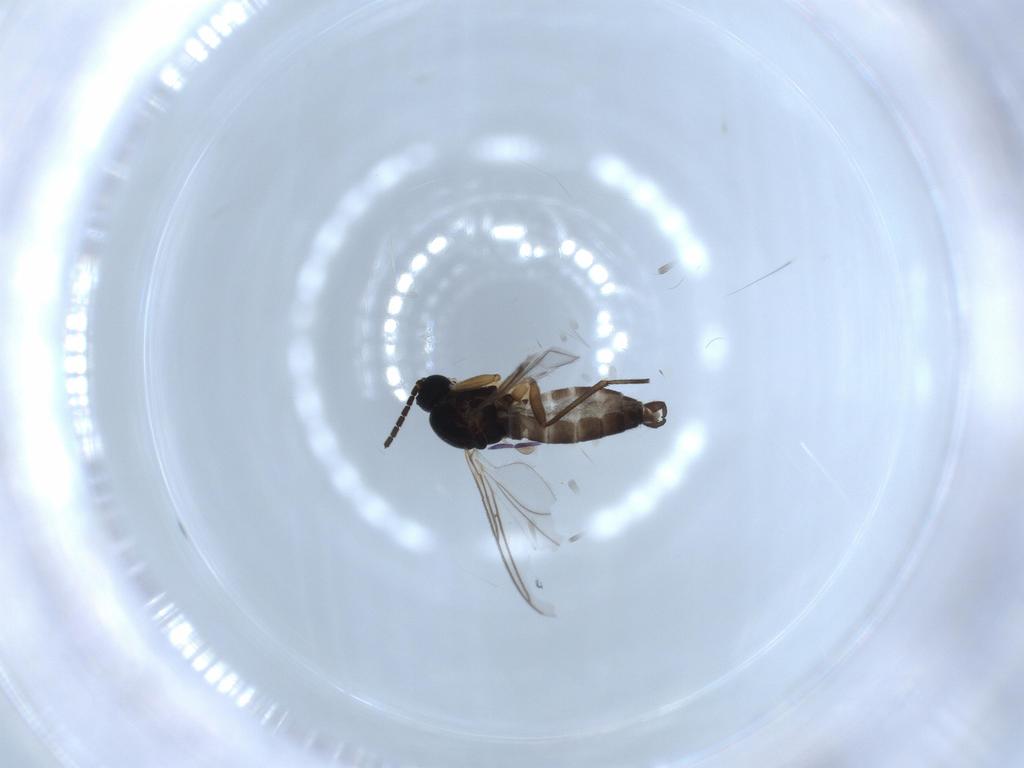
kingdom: Animalia
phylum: Arthropoda
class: Insecta
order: Diptera
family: Sciaridae
